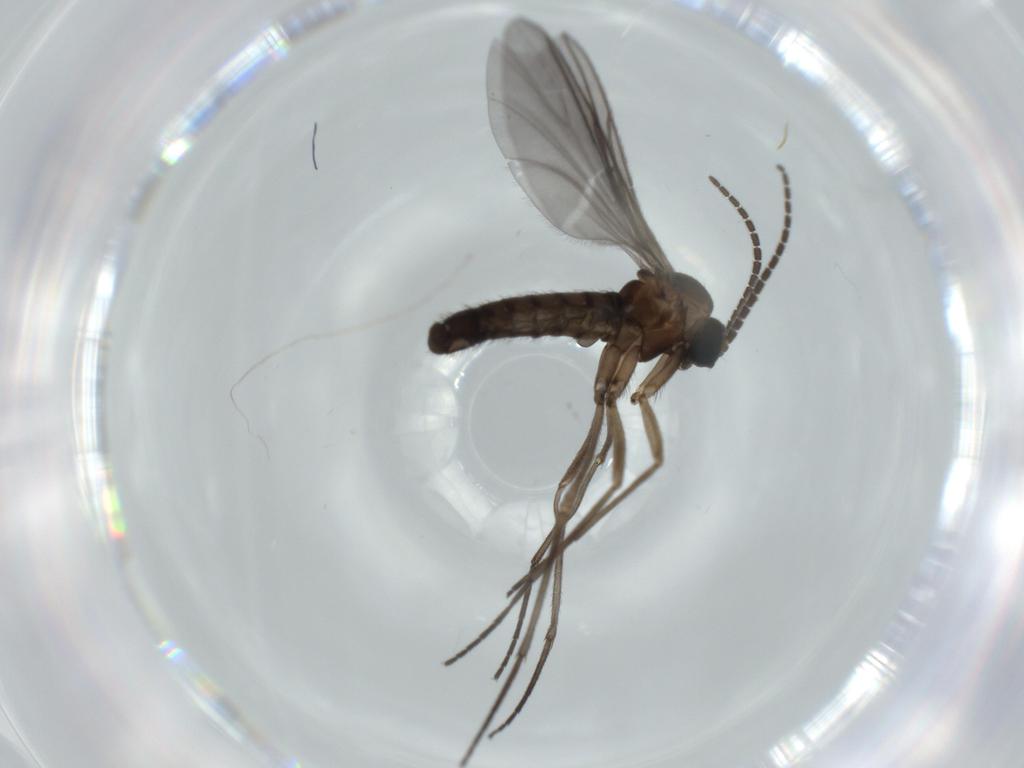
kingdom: Animalia
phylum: Arthropoda
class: Insecta
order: Diptera
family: Sciaridae
